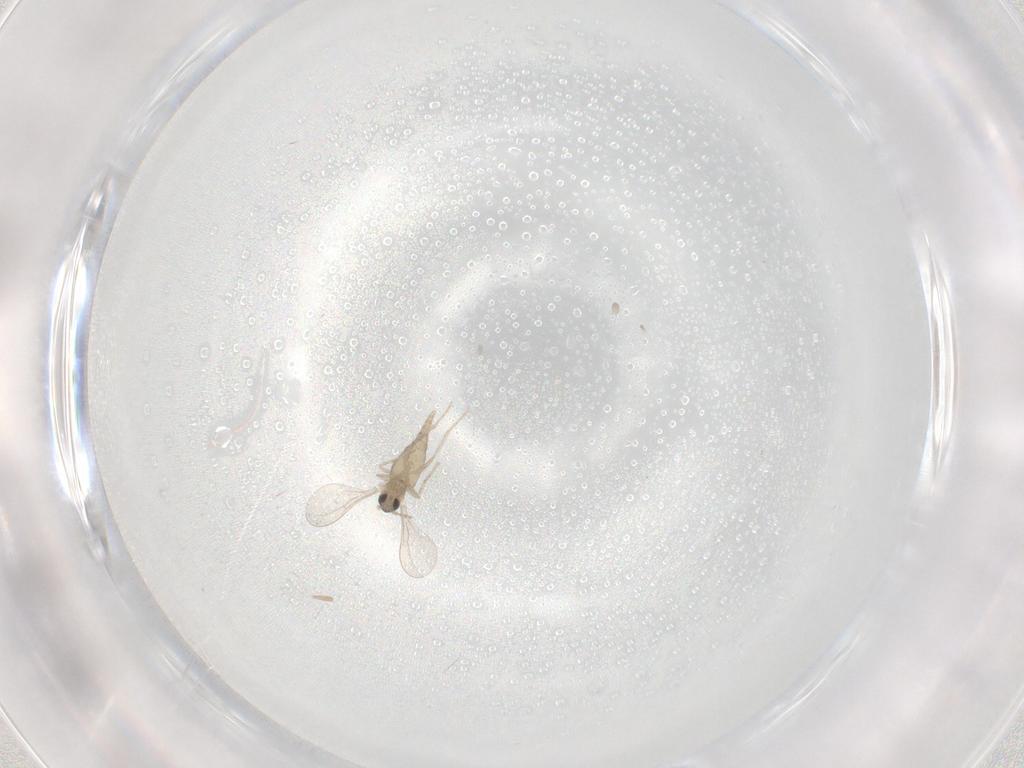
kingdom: Animalia
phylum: Arthropoda
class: Insecta
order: Diptera
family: Cecidomyiidae
